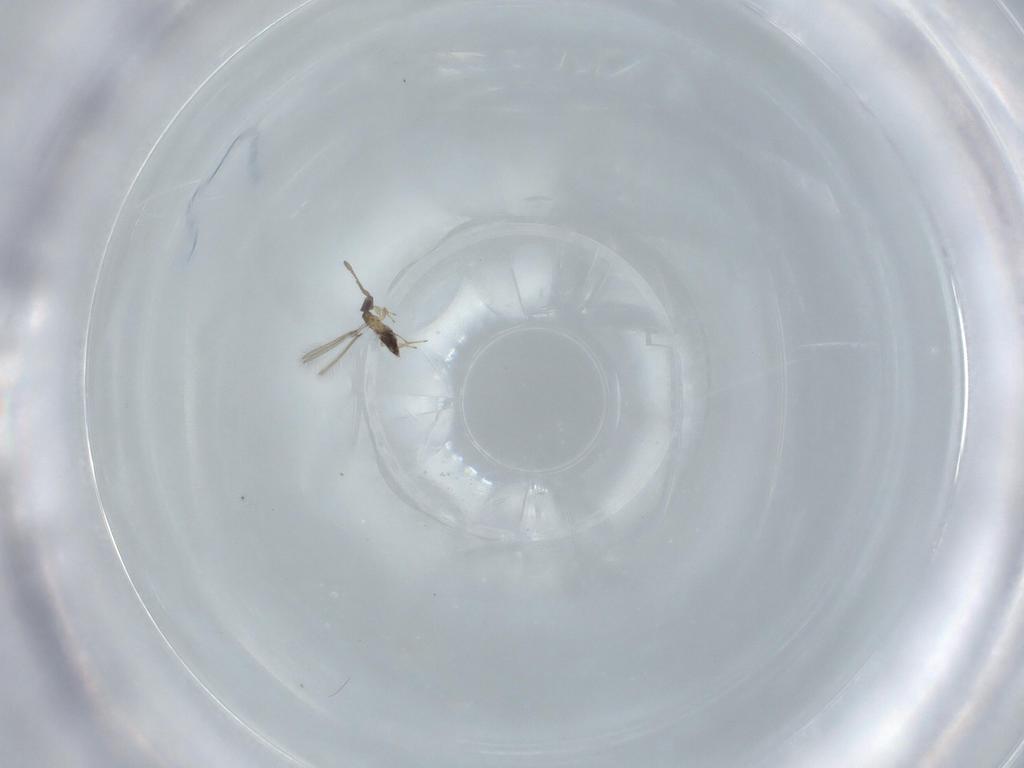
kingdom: Animalia
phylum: Arthropoda
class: Insecta
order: Hymenoptera
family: Mymaridae
